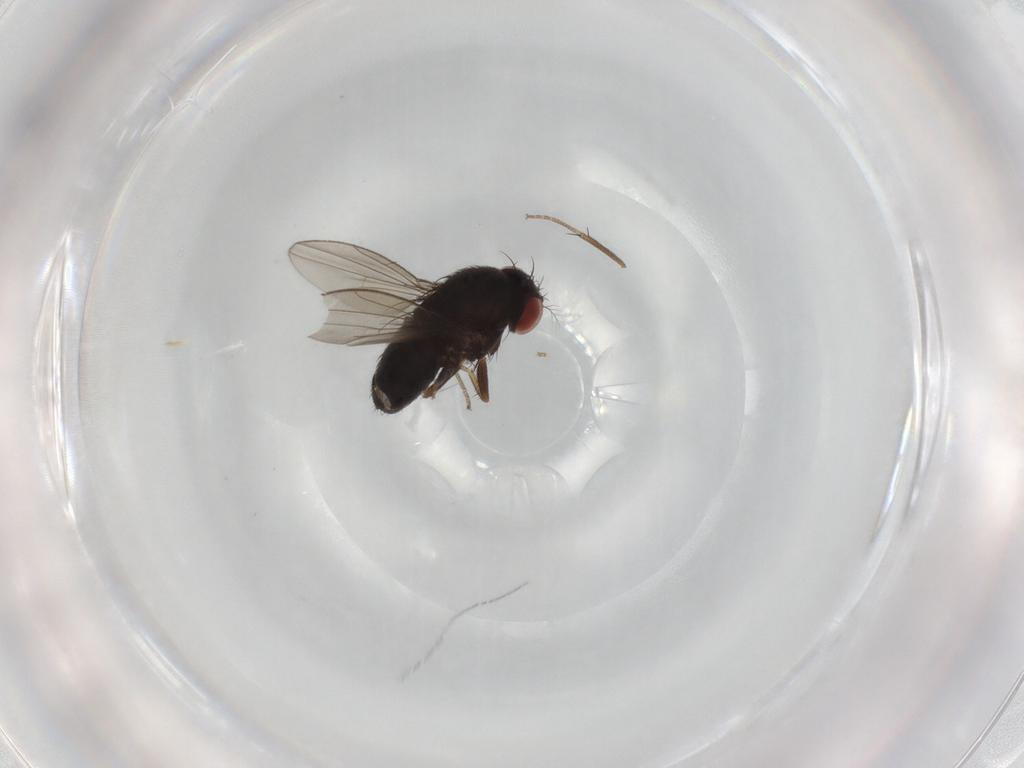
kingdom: Animalia
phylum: Arthropoda
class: Insecta
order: Diptera
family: Drosophilidae
